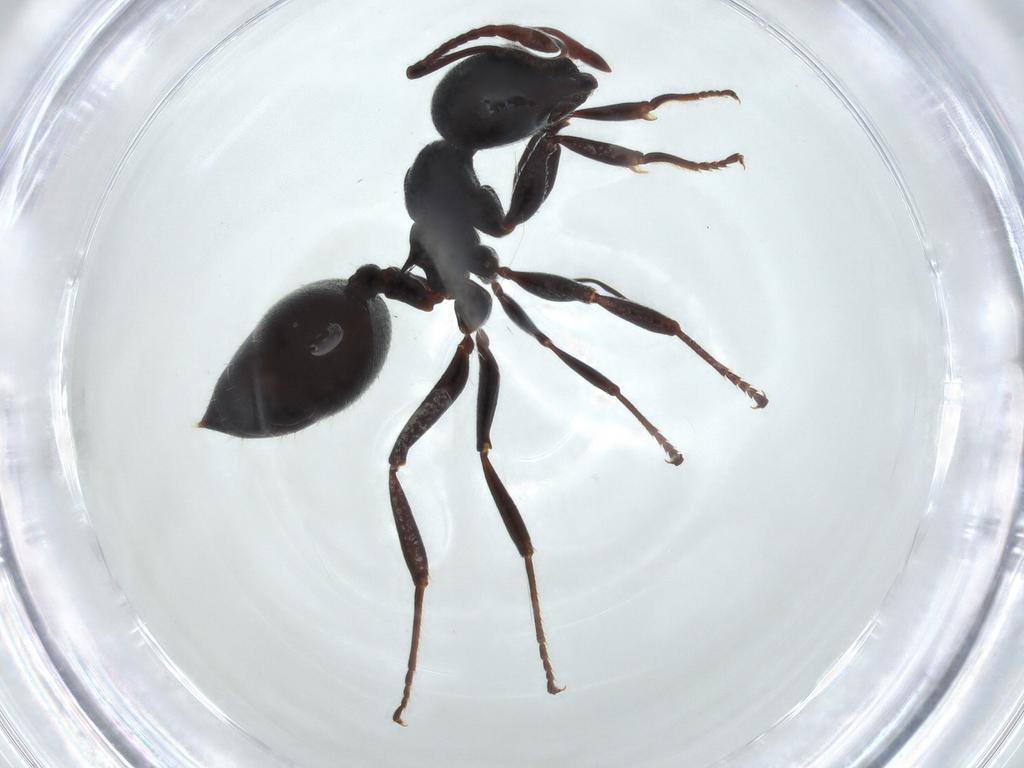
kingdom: Animalia
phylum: Arthropoda
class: Insecta
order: Hymenoptera
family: Formicidae
